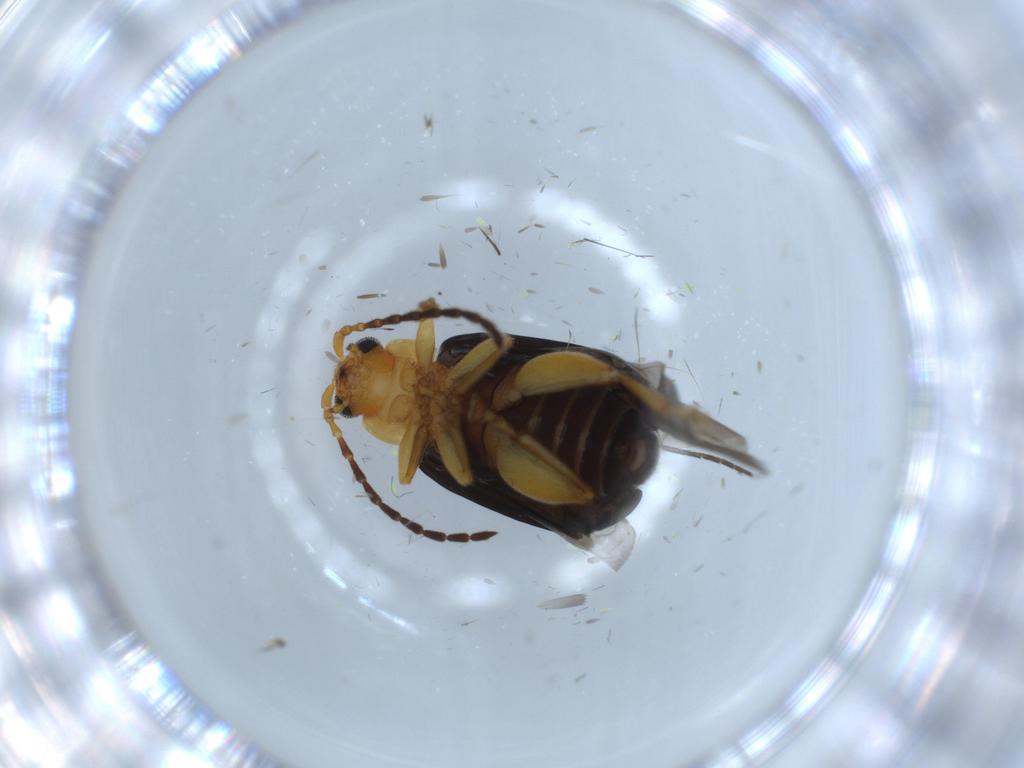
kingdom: Animalia
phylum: Arthropoda
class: Insecta
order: Coleoptera
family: Chrysomelidae
